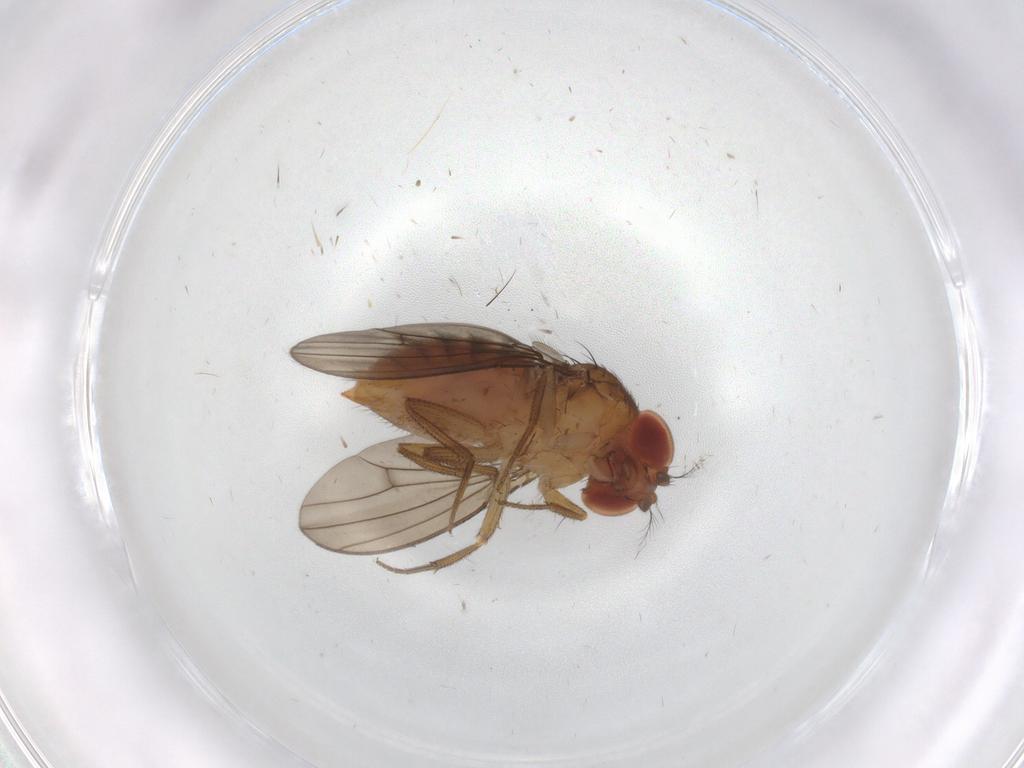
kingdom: Animalia
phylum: Arthropoda
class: Insecta
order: Diptera
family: Drosophilidae
